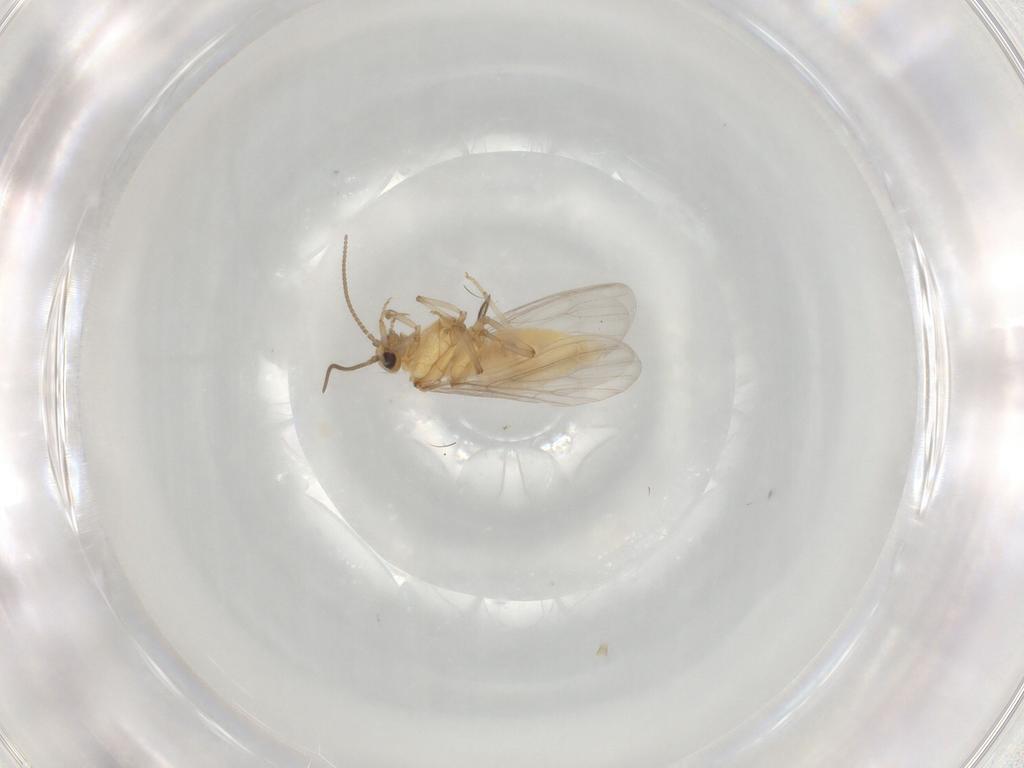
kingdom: Animalia
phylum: Arthropoda
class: Insecta
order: Neuroptera
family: Coniopterygidae
